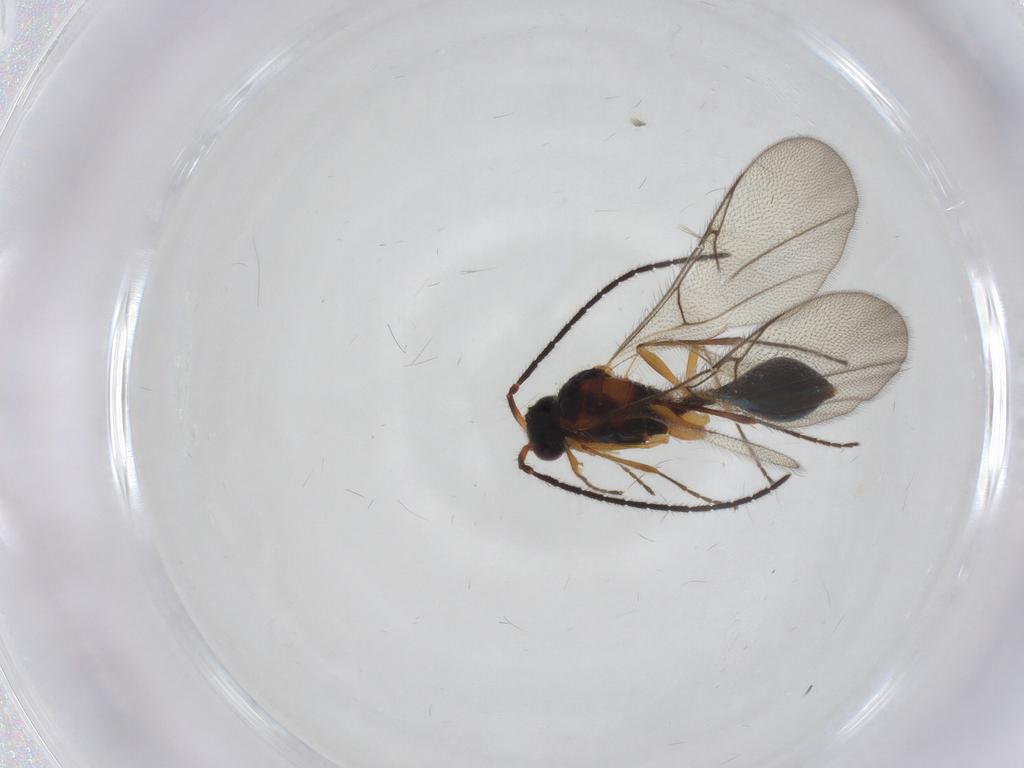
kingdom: Animalia
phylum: Arthropoda
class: Insecta
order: Hymenoptera
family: Diapriidae
